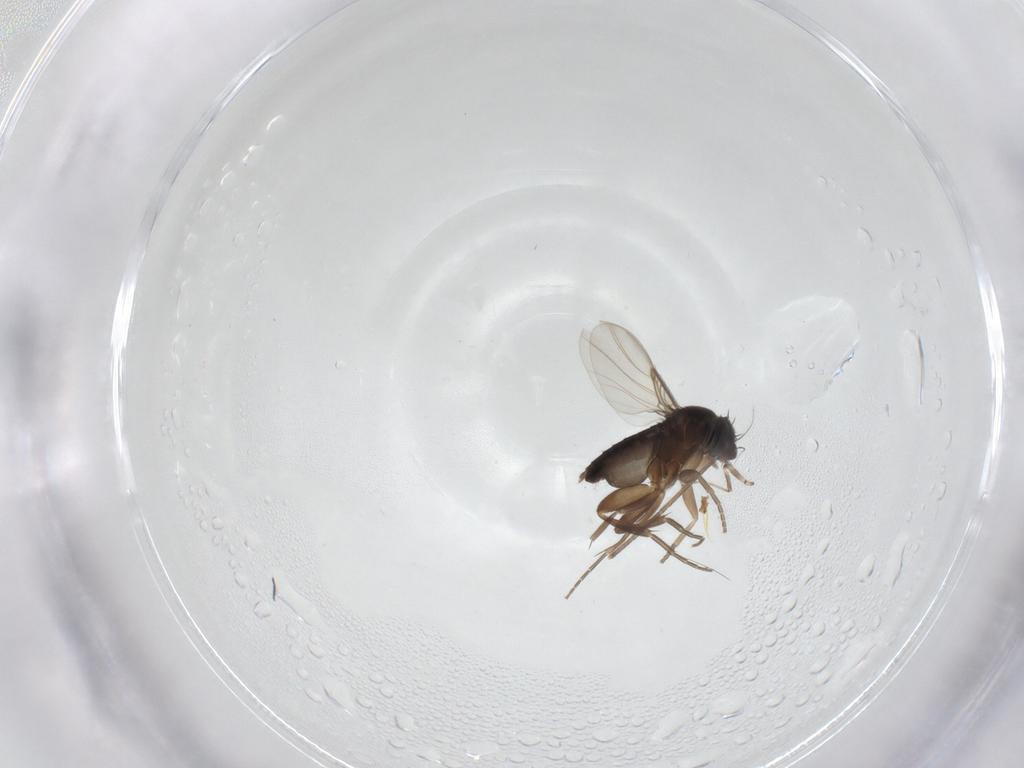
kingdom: Animalia
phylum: Arthropoda
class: Insecta
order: Diptera
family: Phoridae
